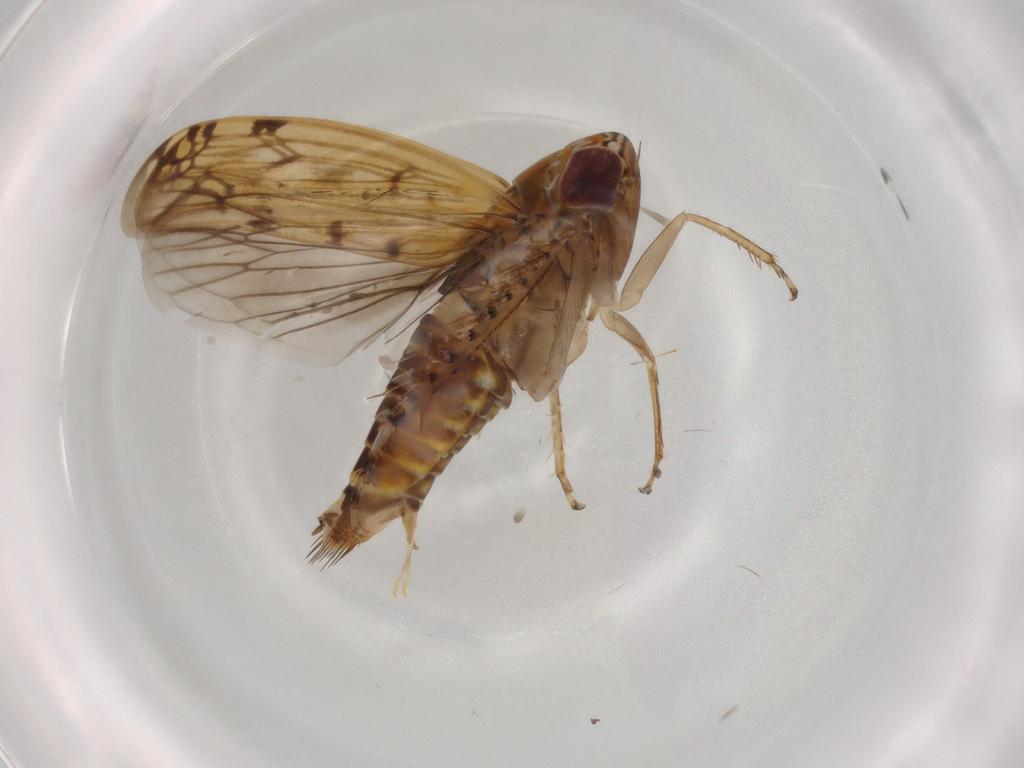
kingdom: Animalia
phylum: Arthropoda
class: Insecta
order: Hemiptera
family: Cicadellidae
